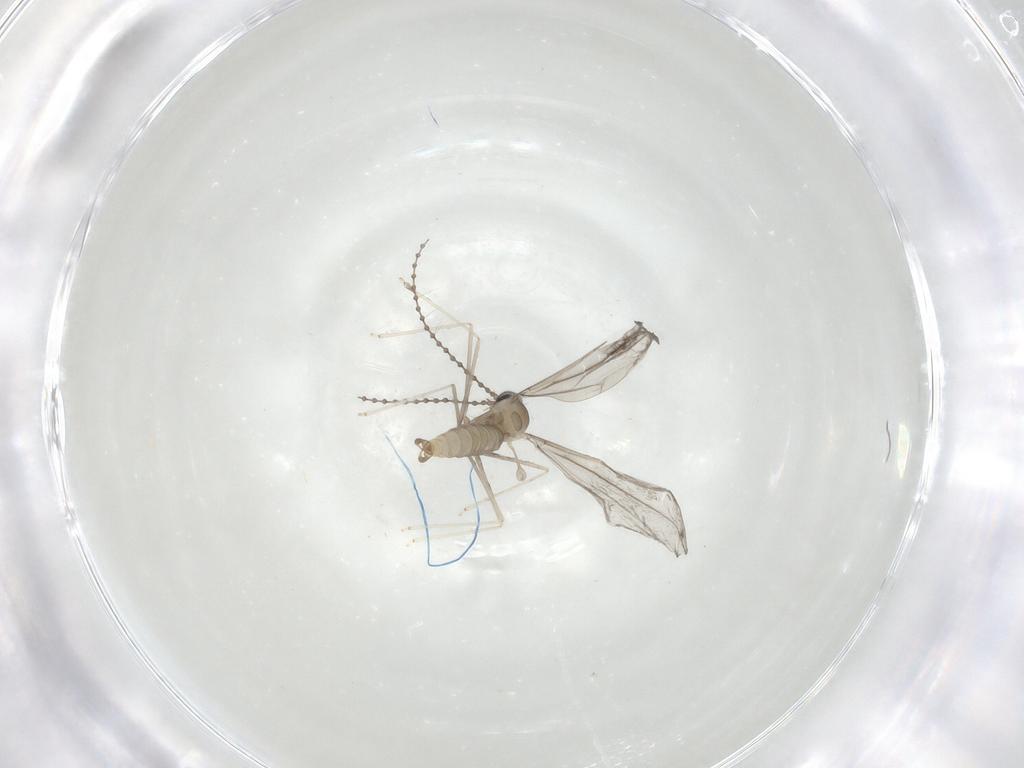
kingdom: Animalia
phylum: Arthropoda
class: Insecta
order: Diptera
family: Cecidomyiidae
